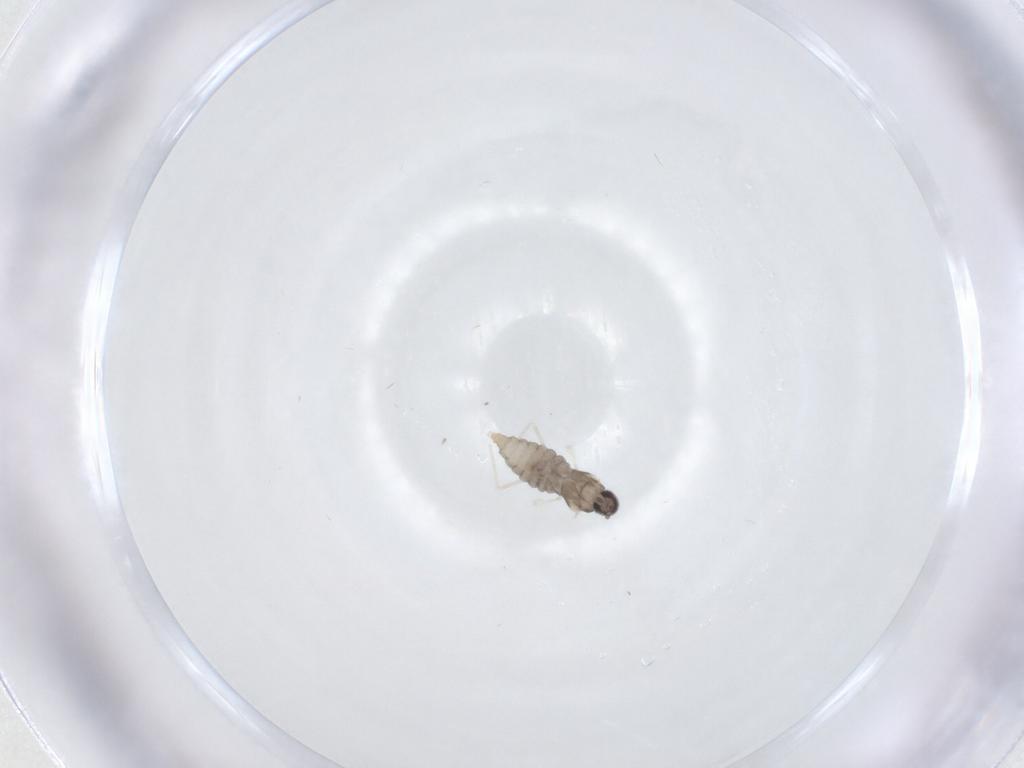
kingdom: Animalia
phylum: Arthropoda
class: Insecta
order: Diptera
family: Cecidomyiidae
